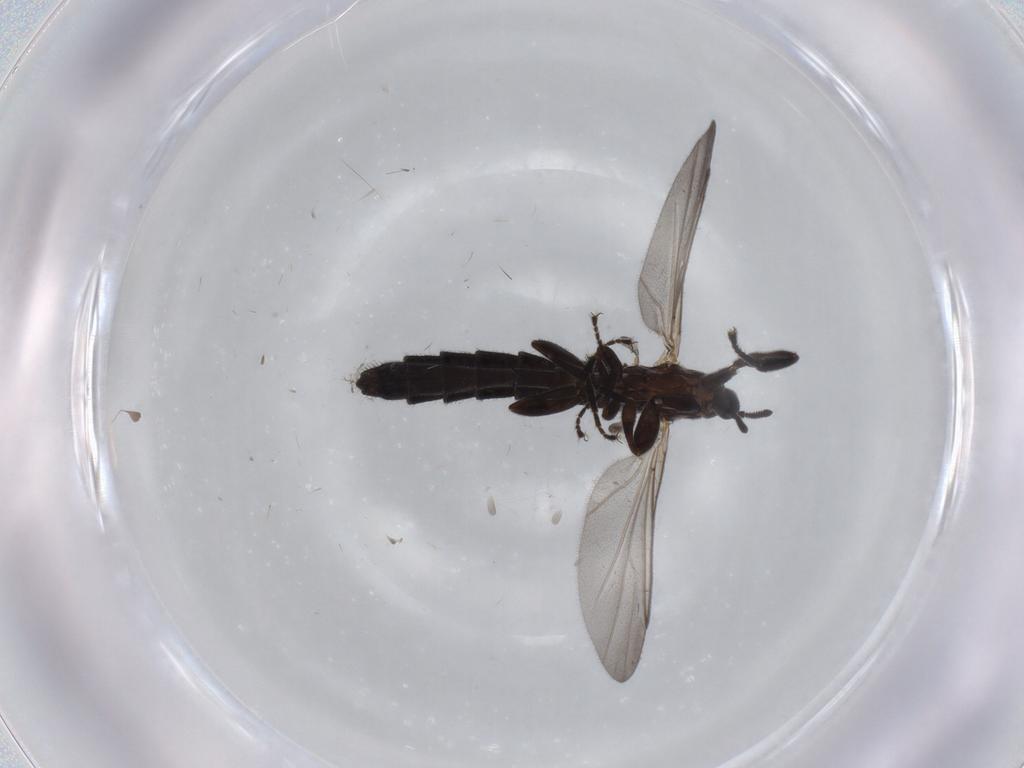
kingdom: Animalia
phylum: Arthropoda
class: Insecta
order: Diptera
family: Scatopsidae
